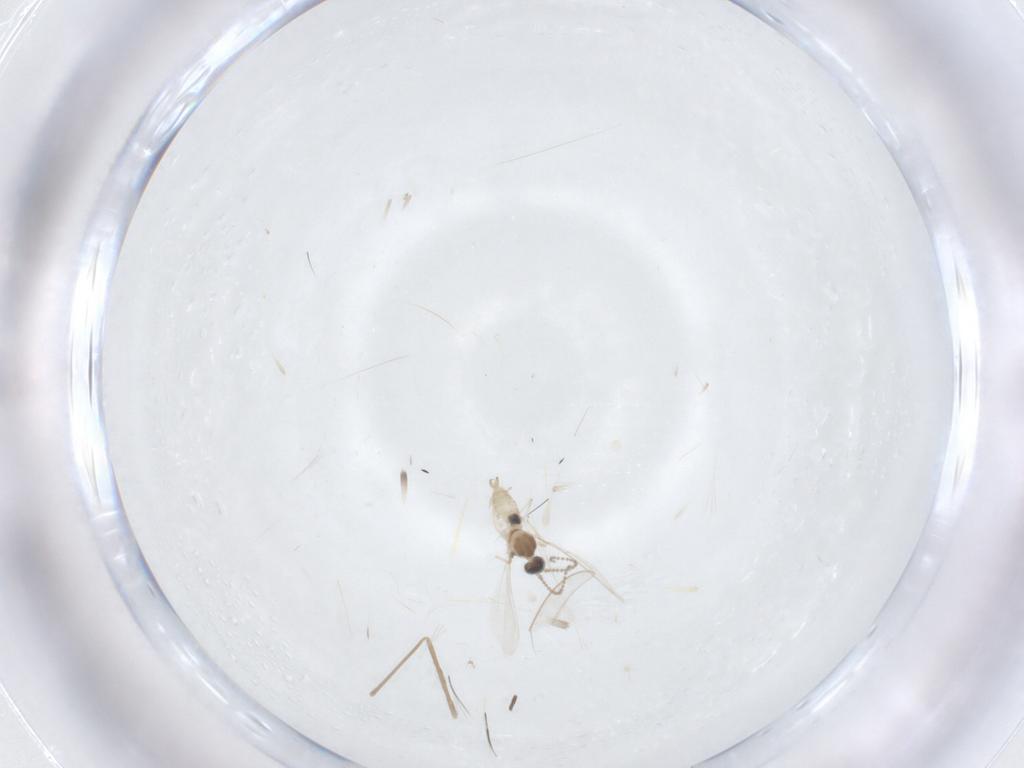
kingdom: Animalia
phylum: Arthropoda
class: Insecta
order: Diptera
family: Cecidomyiidae
